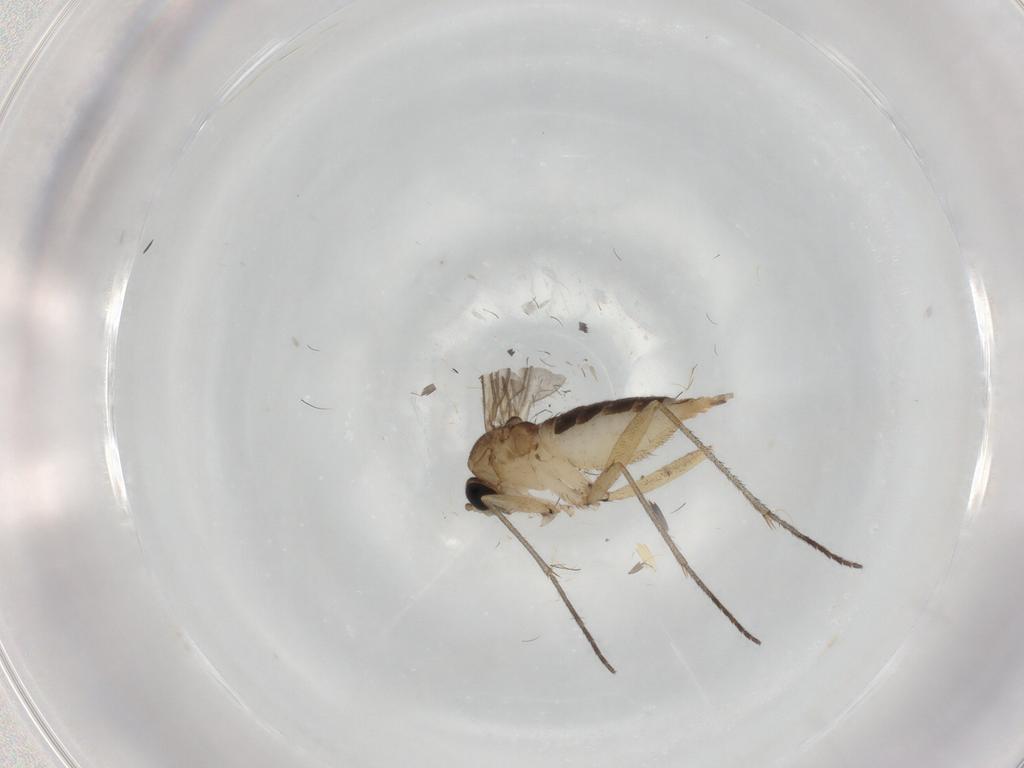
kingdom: Animalia
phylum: Arthropoda
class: Insecta
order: Diptera
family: Sciaridae
